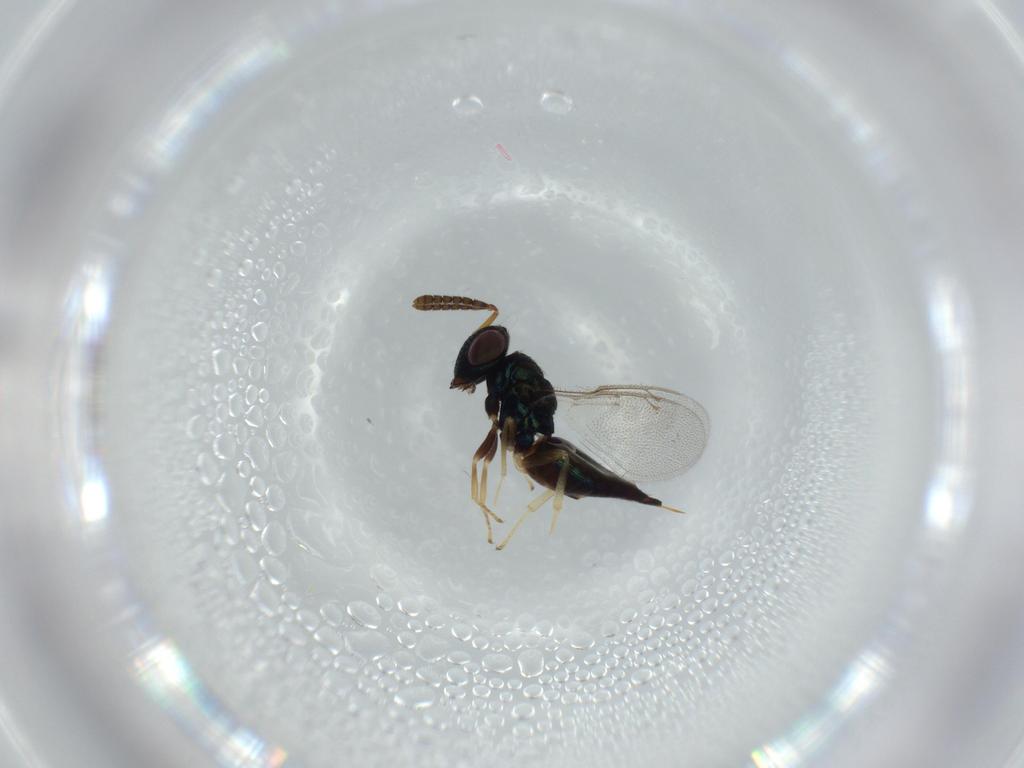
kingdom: Animalia
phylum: Arthropoda
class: Insecta
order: Hymenoptera
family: Pteromalidae
